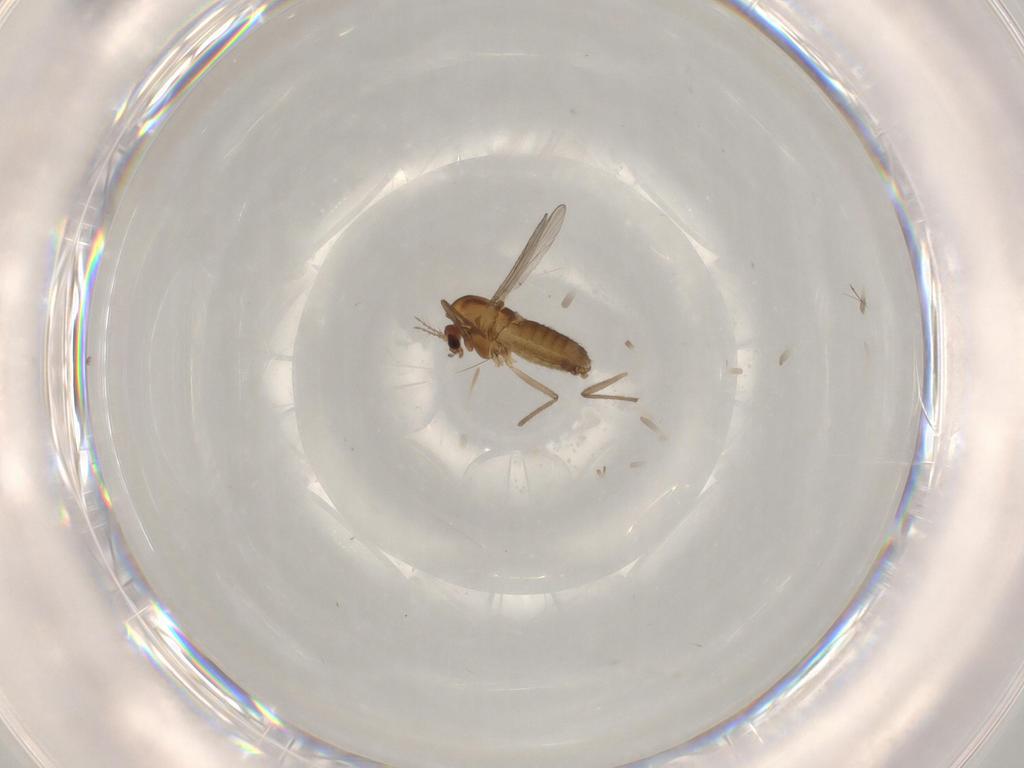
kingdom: Animalia
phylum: Arthropoda
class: Insecta
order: Diptera
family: Chironomidae
